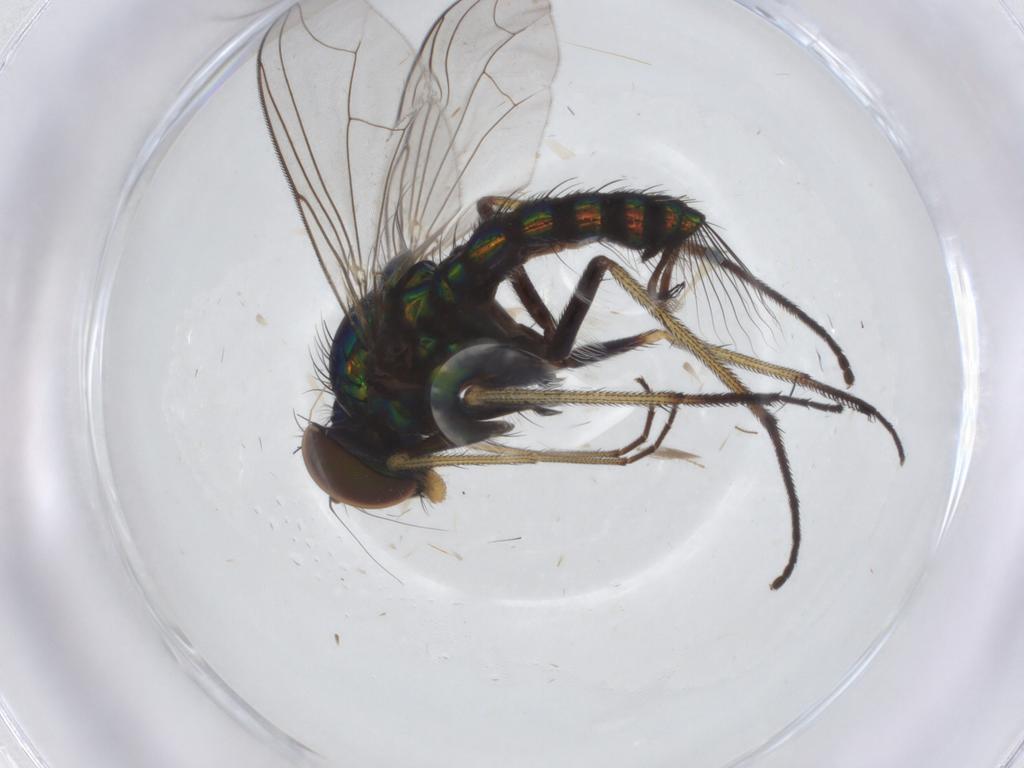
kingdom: Animalia
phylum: Arthropoda
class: Insecta
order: Diptera
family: Dolichopodidae
